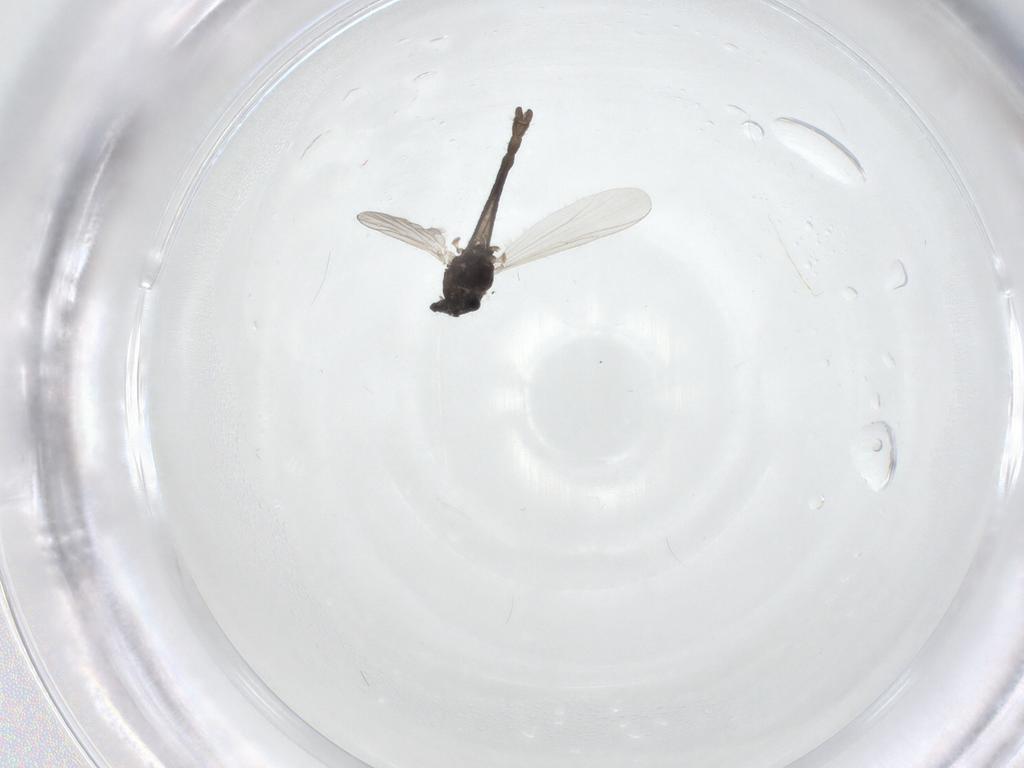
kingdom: Animalia
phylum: Arthropoda
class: Insecta
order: Diptera
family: Chironomidae
